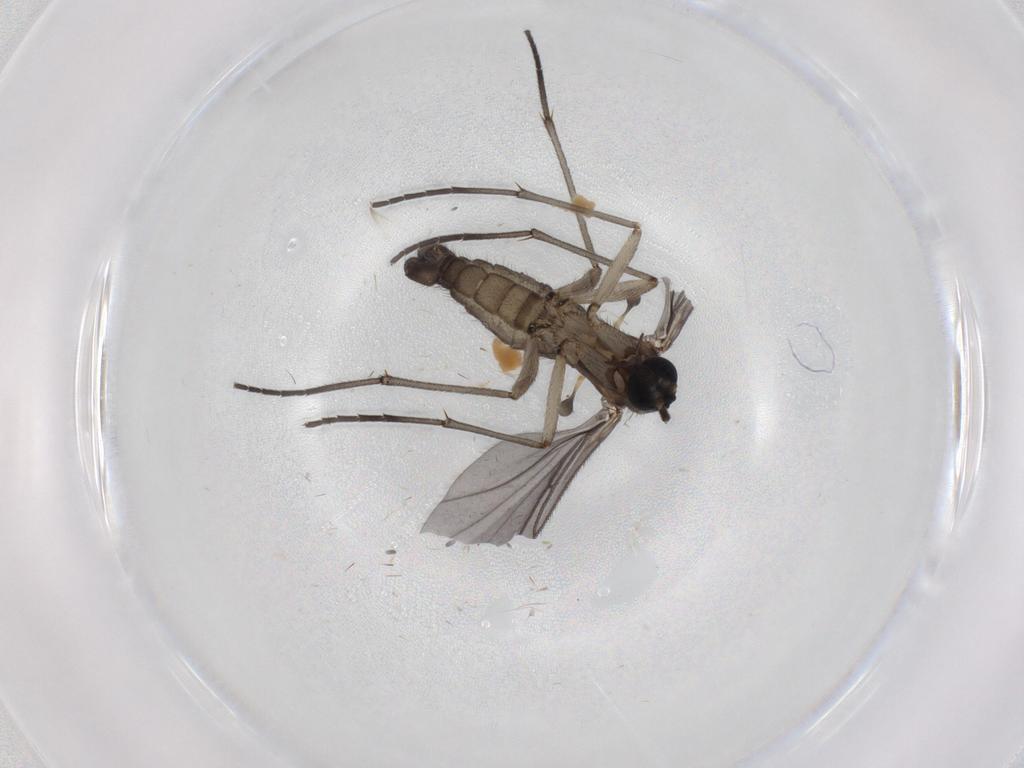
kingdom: Animalia
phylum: Arthropoda
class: Insecta
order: Diptera
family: Sciaridae
